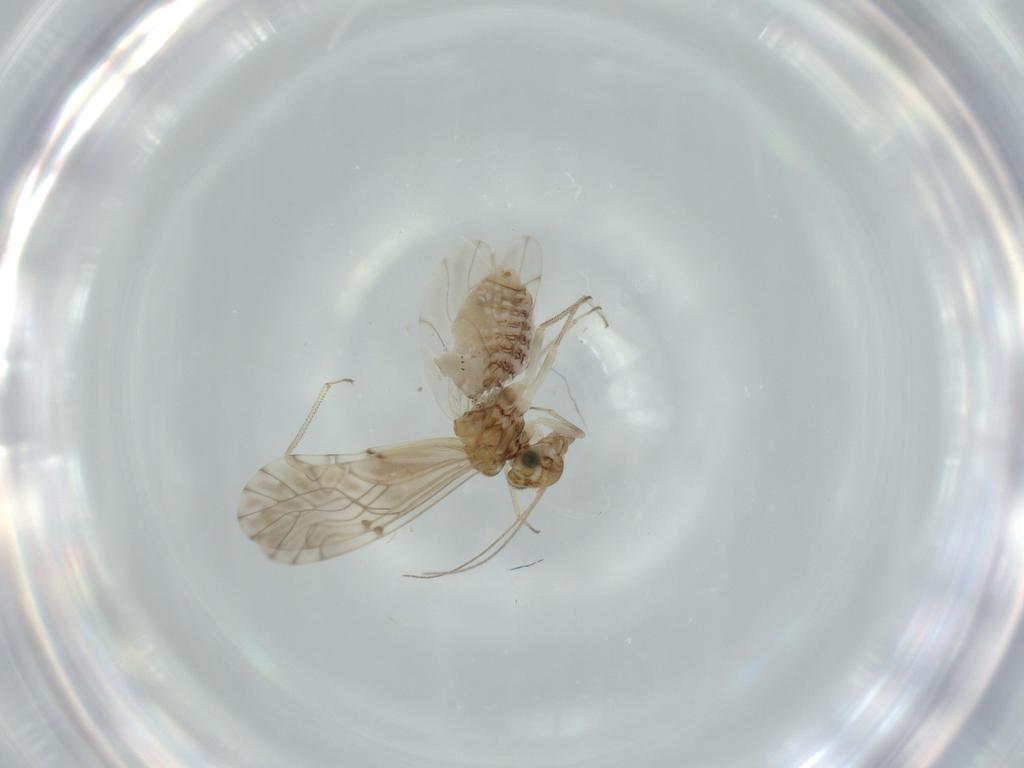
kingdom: Animalia
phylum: Arthropoda
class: Insecta
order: Psocodea
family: Lachesillidae
